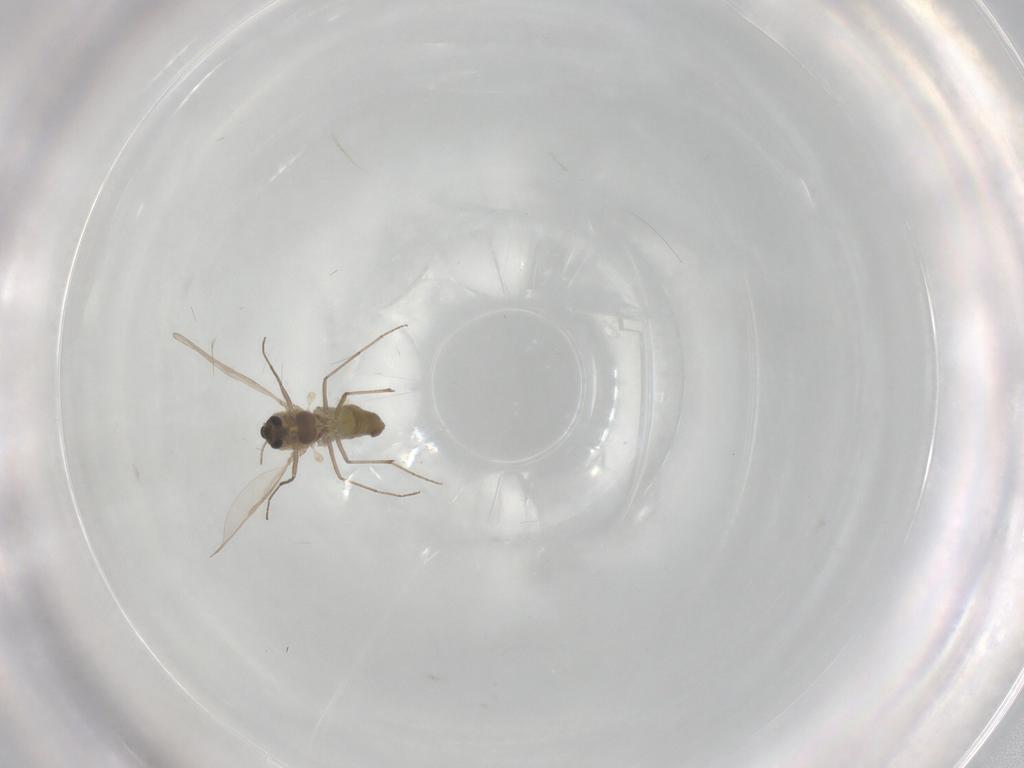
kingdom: Animalia
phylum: Arthropoda
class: Insecta
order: Diptera
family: Chironomidae
